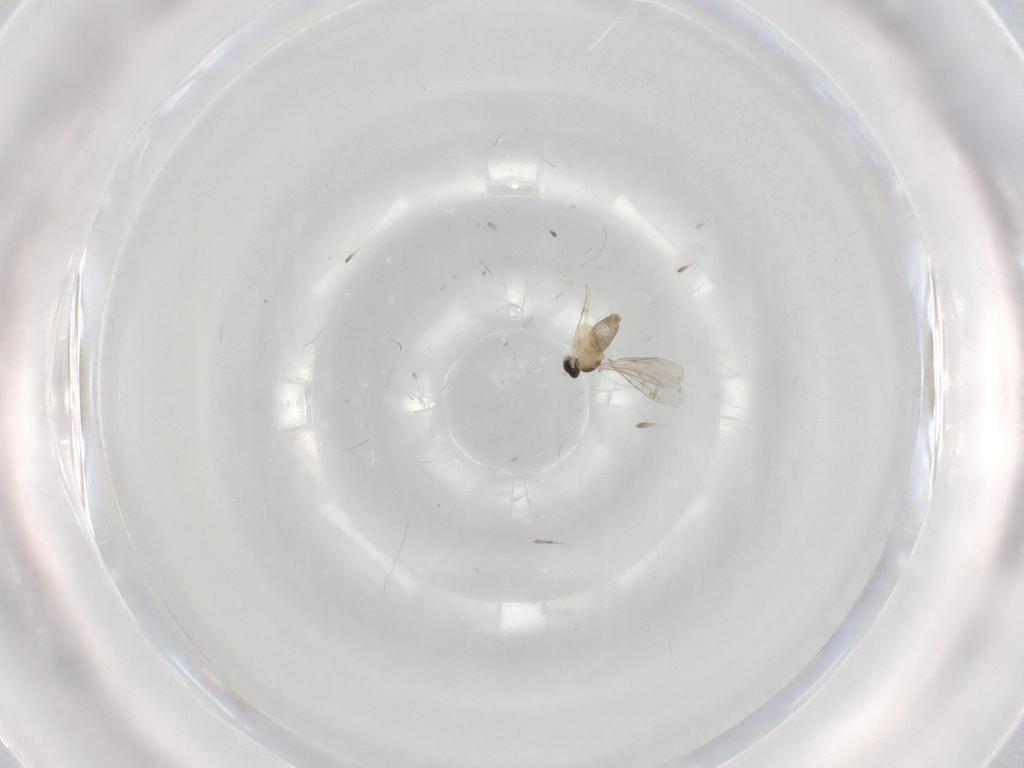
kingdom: Animalia
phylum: Arthropoda
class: Insecta
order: Diptera
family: Cecidomyiidae
